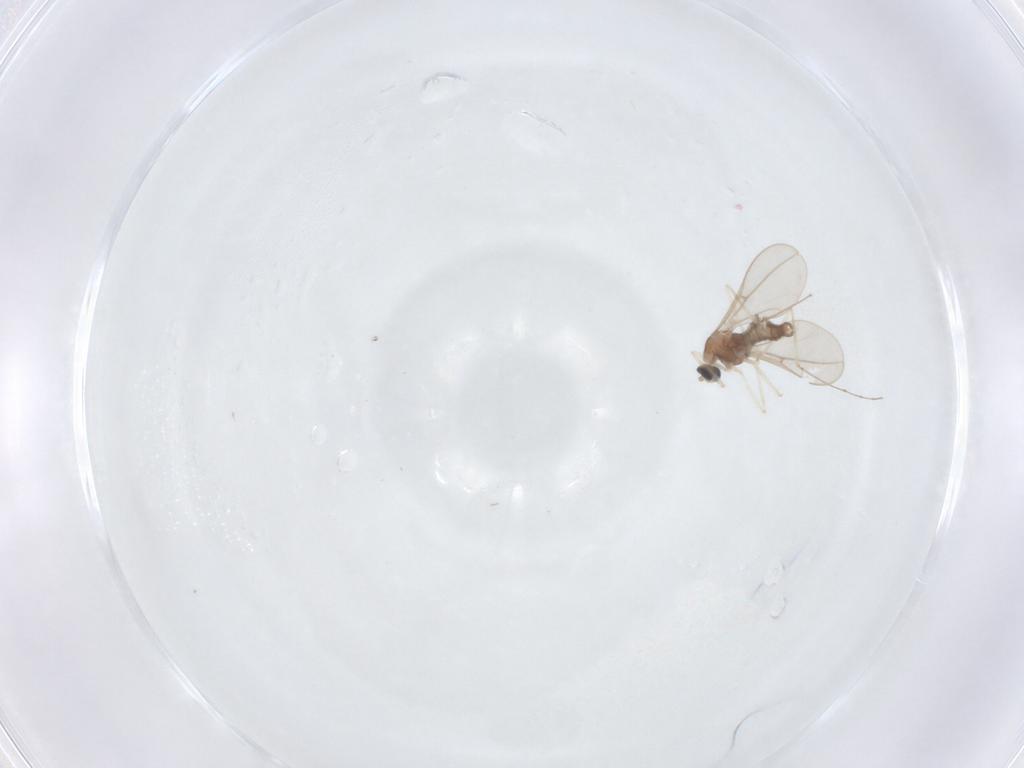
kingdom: Animalia
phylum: Arthropoda
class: Insecta
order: Diptera
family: Cecidomyiidae
